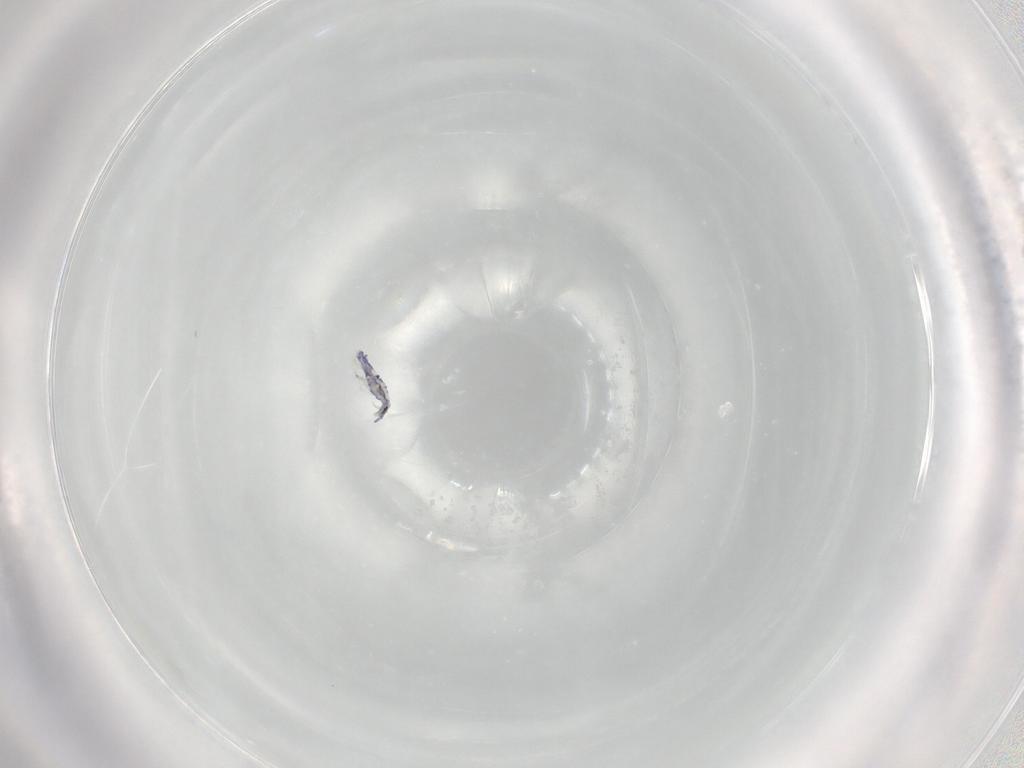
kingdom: Animalia
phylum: Arthropoda
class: Collembola
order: Entomobryomorpha
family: Entomobryidae
